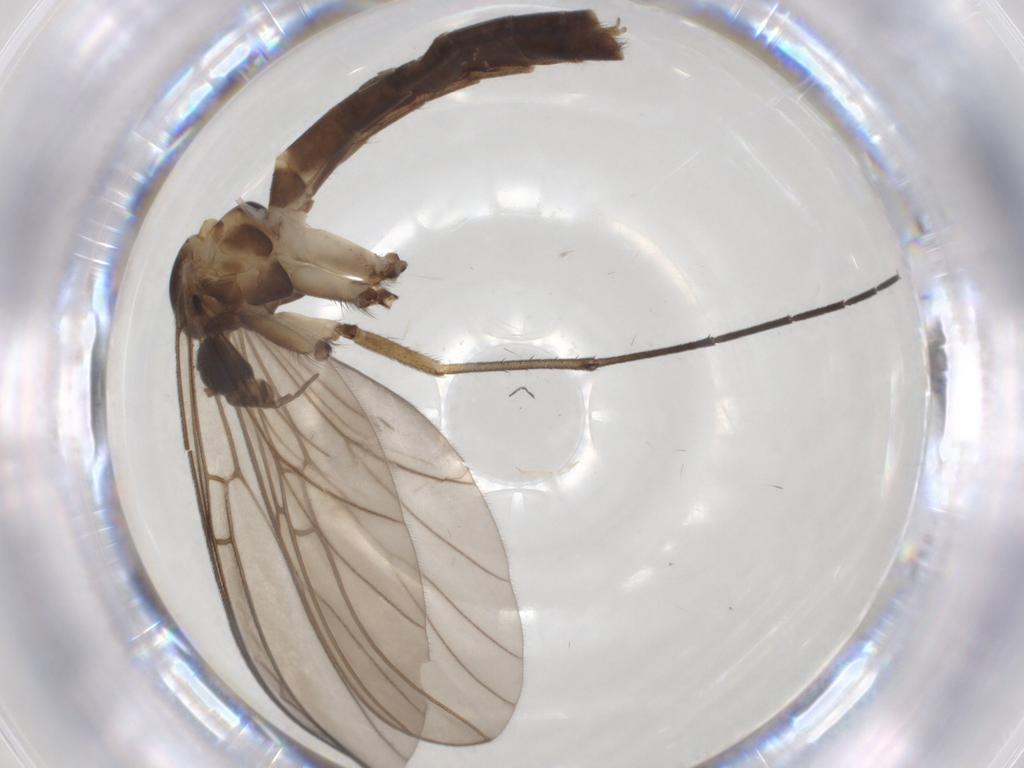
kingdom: Animalia
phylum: Arthropoda
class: Insecta
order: Diptera
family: Mycetophilidae
